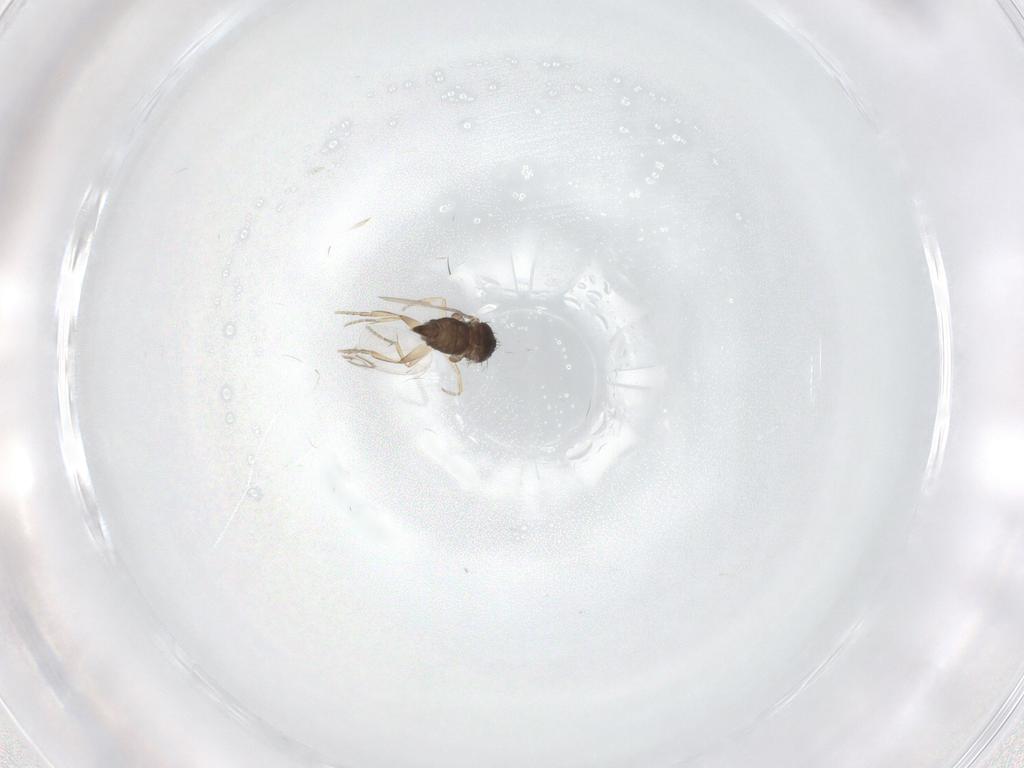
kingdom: Animalia
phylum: Arthropoda
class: Insecta
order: Diptera
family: Phoridae
